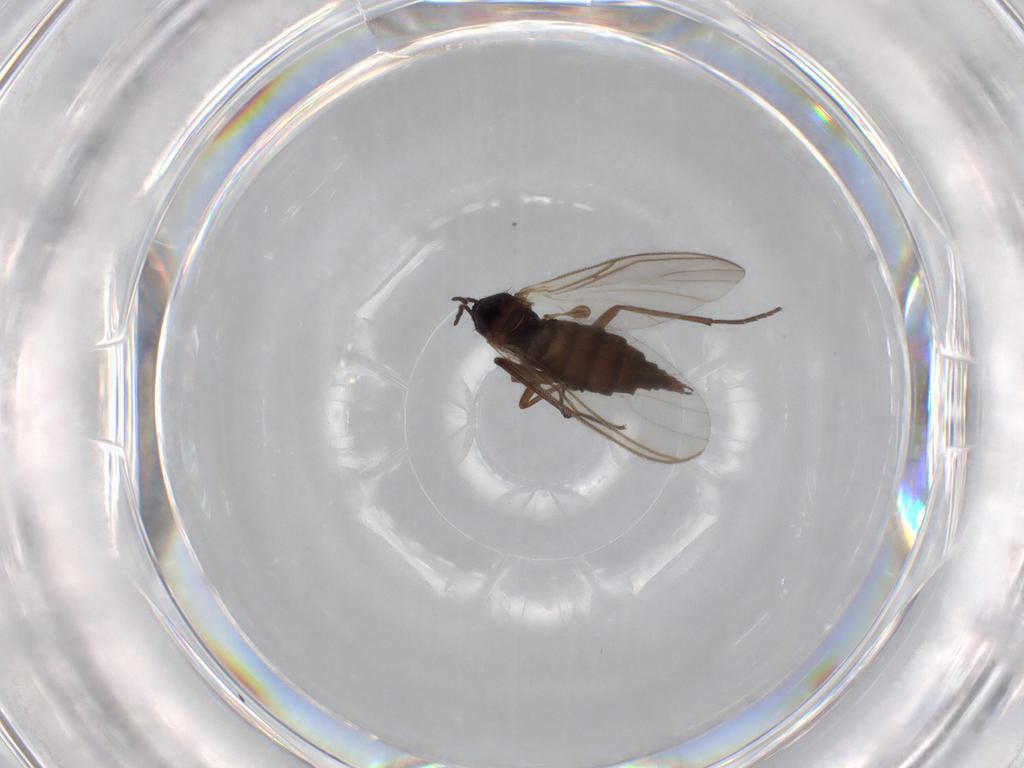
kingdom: Animalia
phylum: Arthropoda
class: Insecta
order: Diptera
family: Sciaridae
